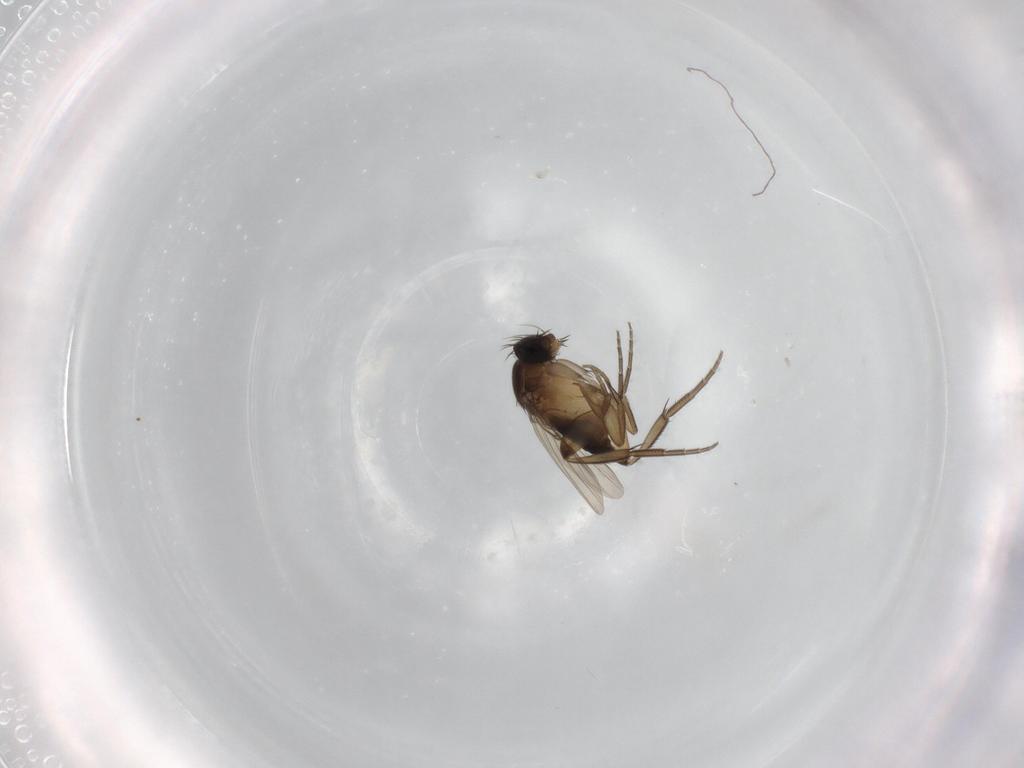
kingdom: Animalia
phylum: Arthropoda
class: Insecta
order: Diptera
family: Phoridae
